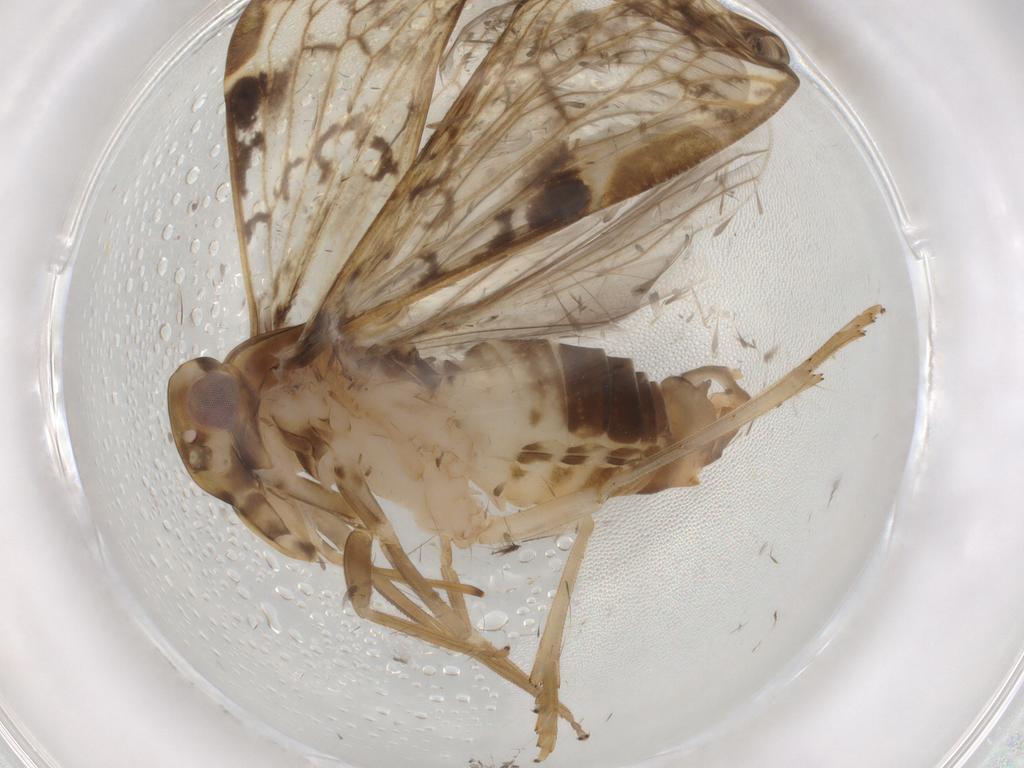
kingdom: Animalia
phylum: Arthropoda
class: Insecta
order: Hemiptera
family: Cixiidae
